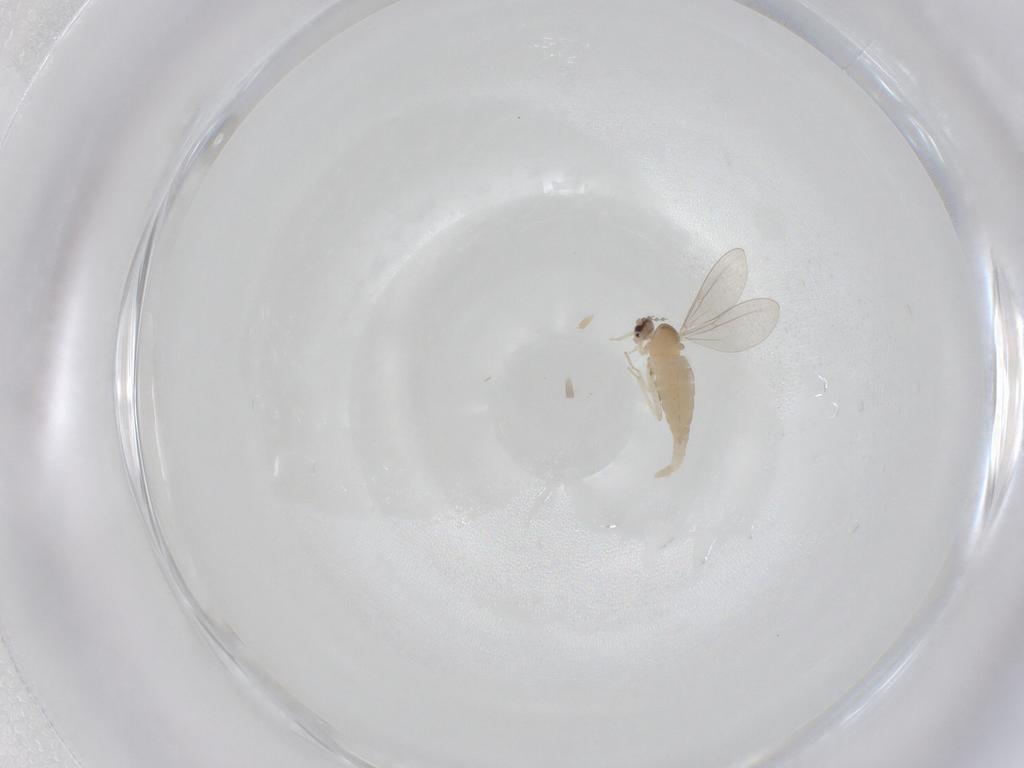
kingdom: Animalia
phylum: Arthropoda
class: Insecta
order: Diptera
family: Cecidomyiidae
